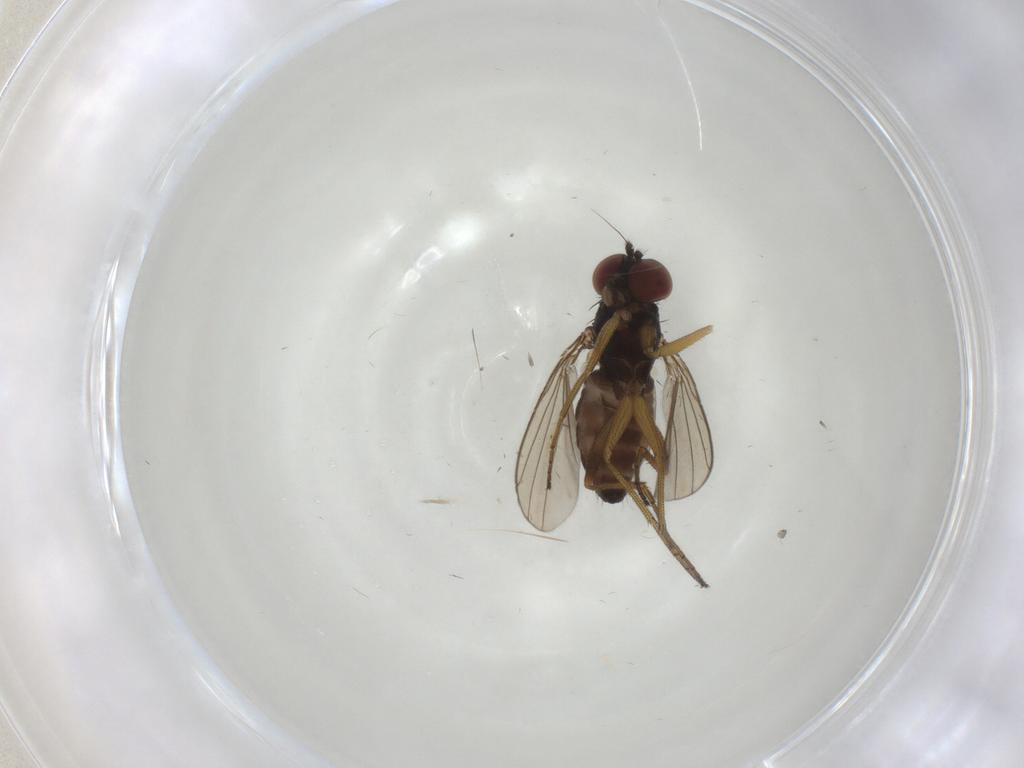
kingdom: Animalia
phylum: Arthropoda
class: Insecta
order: Diptera
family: Dolichopodidae
